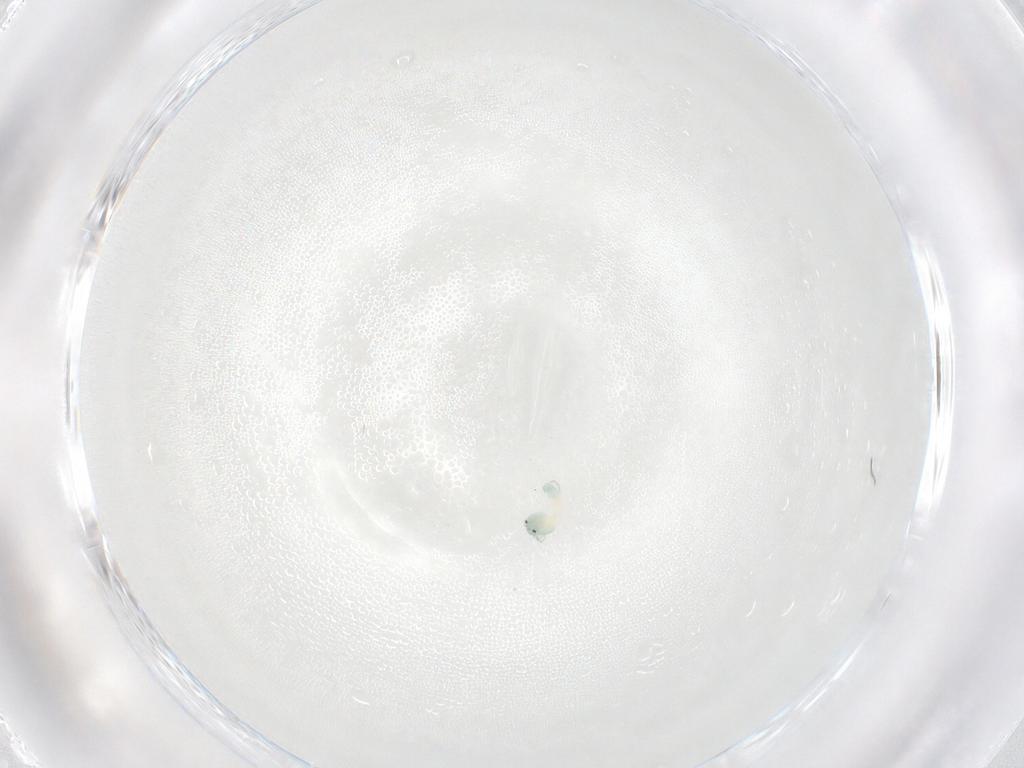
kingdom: Animalia
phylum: Arthropoda
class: Arachnida
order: Trombidiformes
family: Arrenuridae
